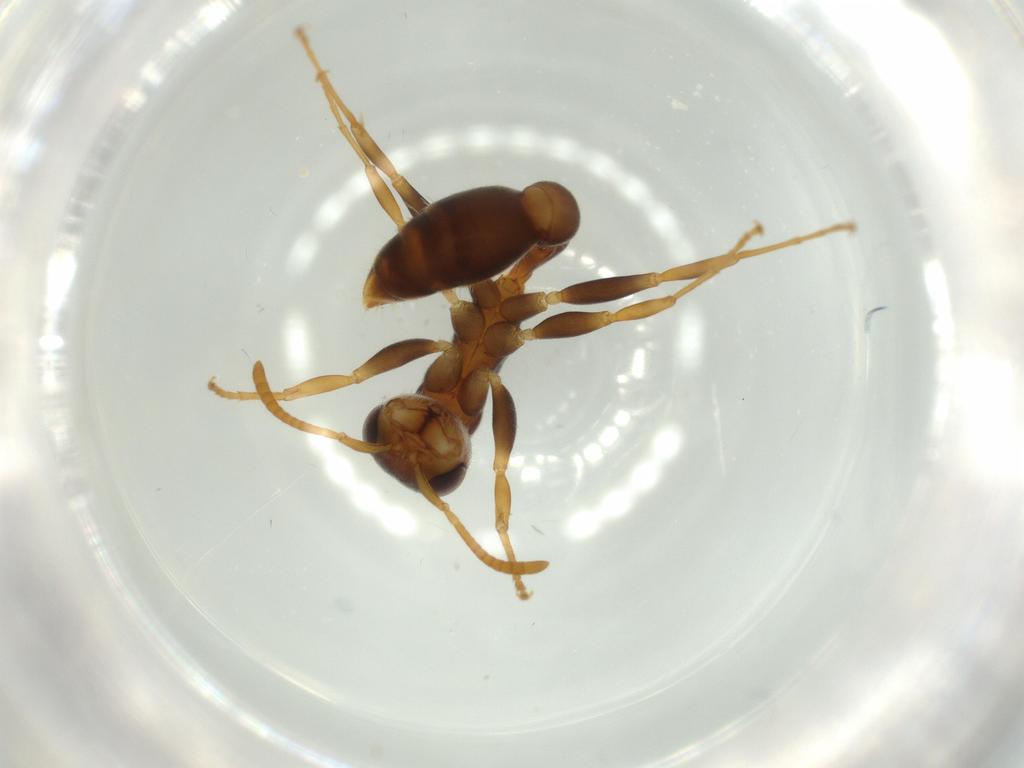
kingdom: Animalia
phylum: Arthropoda
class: Insecta
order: Hymenoptera
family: Formicidae
